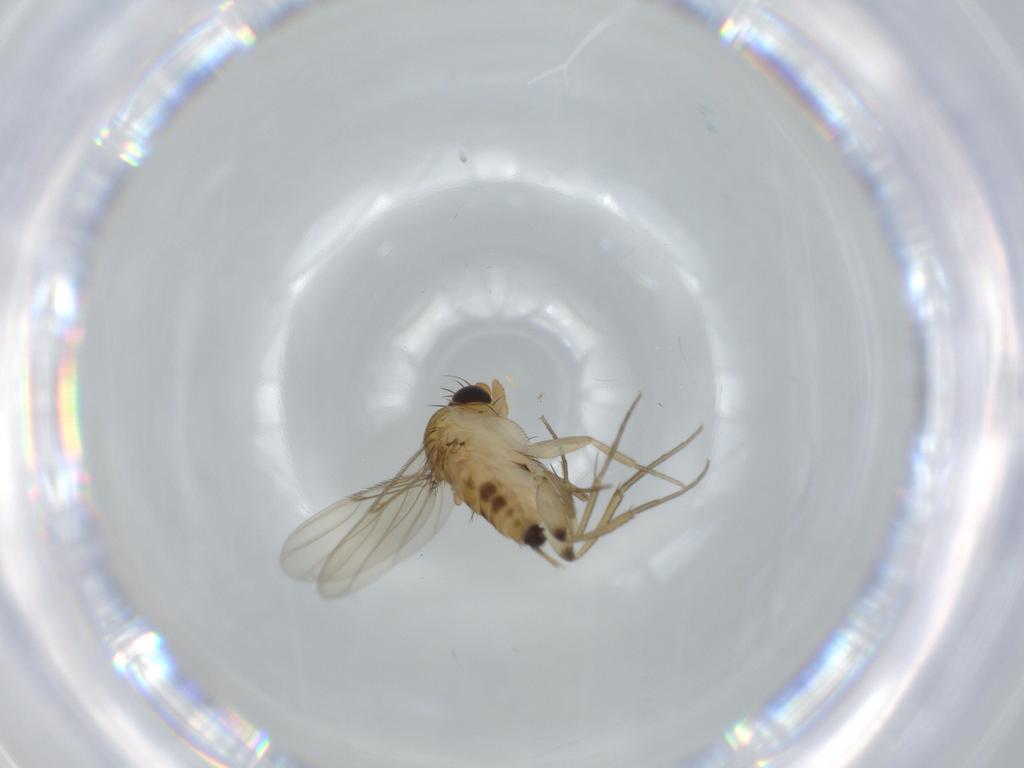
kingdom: Animalia
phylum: Arthropoda
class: Insecta
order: Diptera
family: Phoridae
